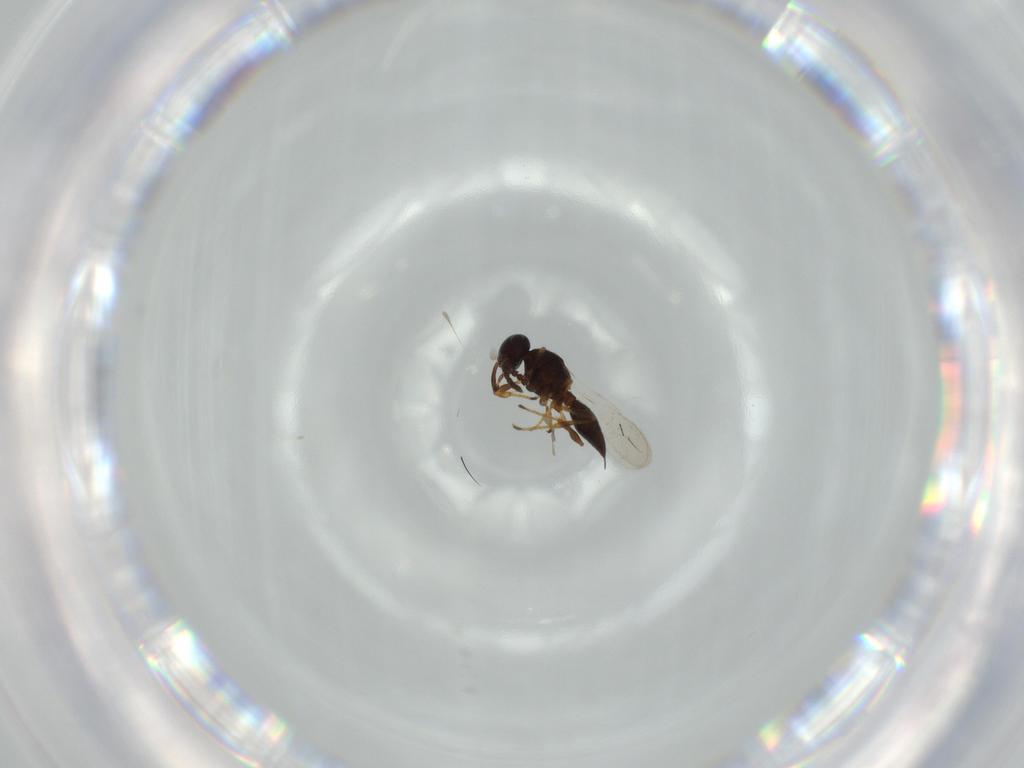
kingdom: Animalia
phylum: Arthropoda
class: Insecta
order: Hymenoptera
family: Platygastridae
